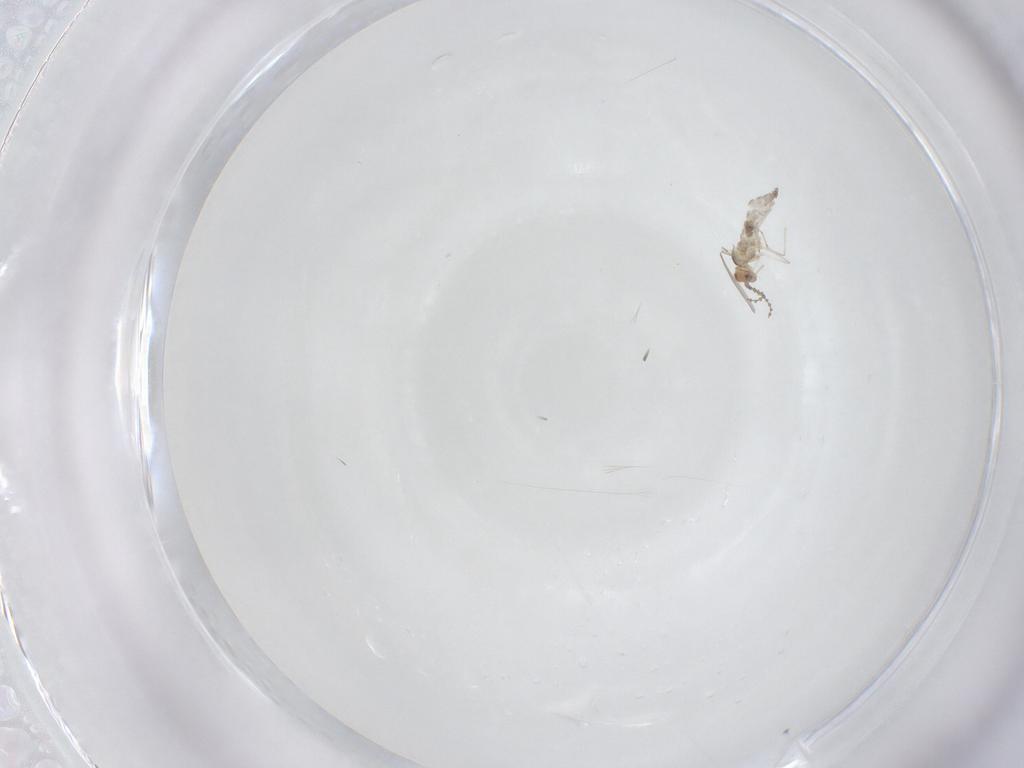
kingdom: Animalia
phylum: Arthropoda
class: Insecta
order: Diptera
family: Cecidomyiidae
